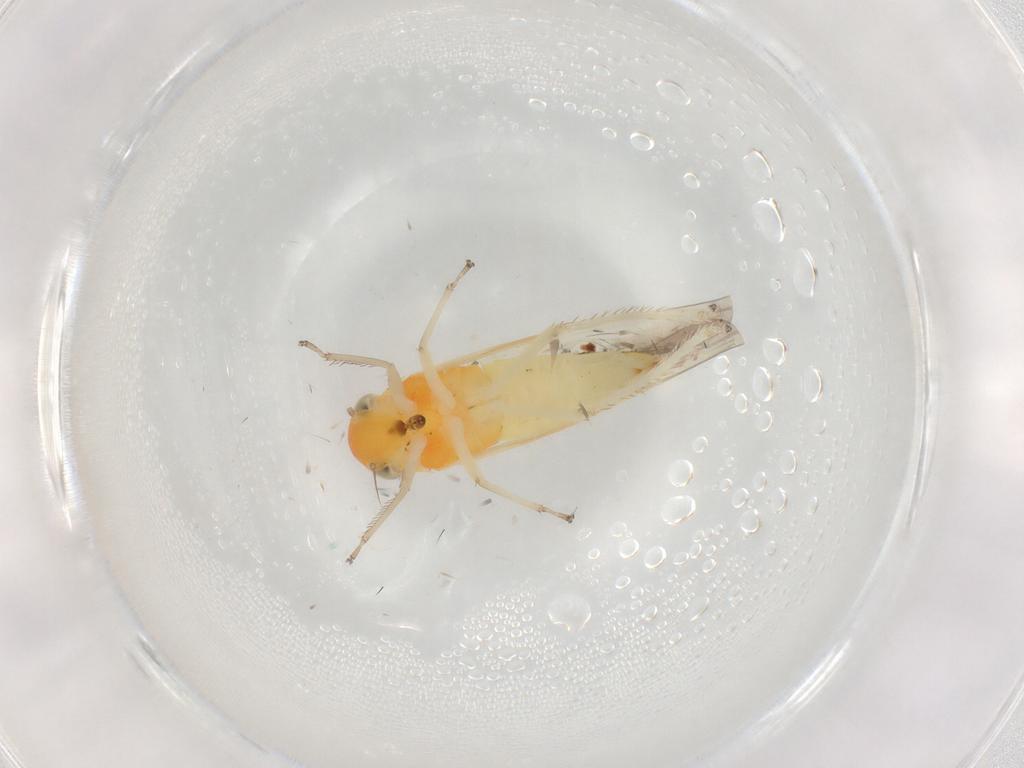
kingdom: Animalia
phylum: Arthropoda
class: Insecta
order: Hemiptera
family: Cicadellidae
